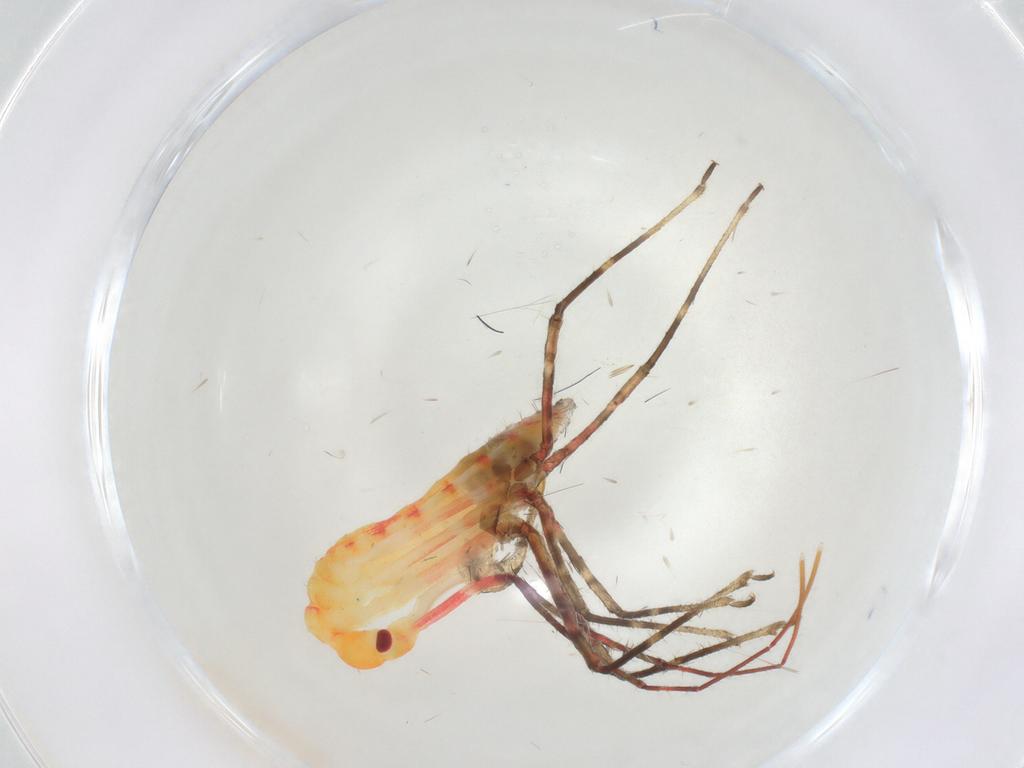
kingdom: Animalia
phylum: Arthropoda
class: Insecta
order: Hemiptera
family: Reduviidae
